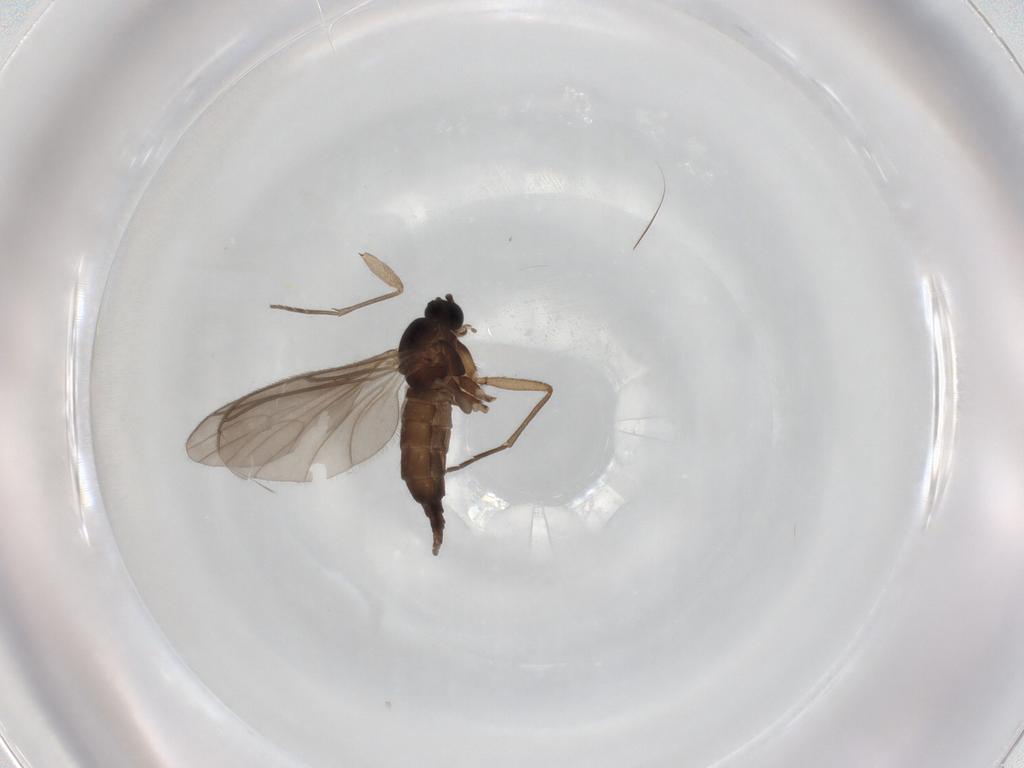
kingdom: Animalia
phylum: Arthropoda
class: Insecta
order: Diptera
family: Sciaridae
